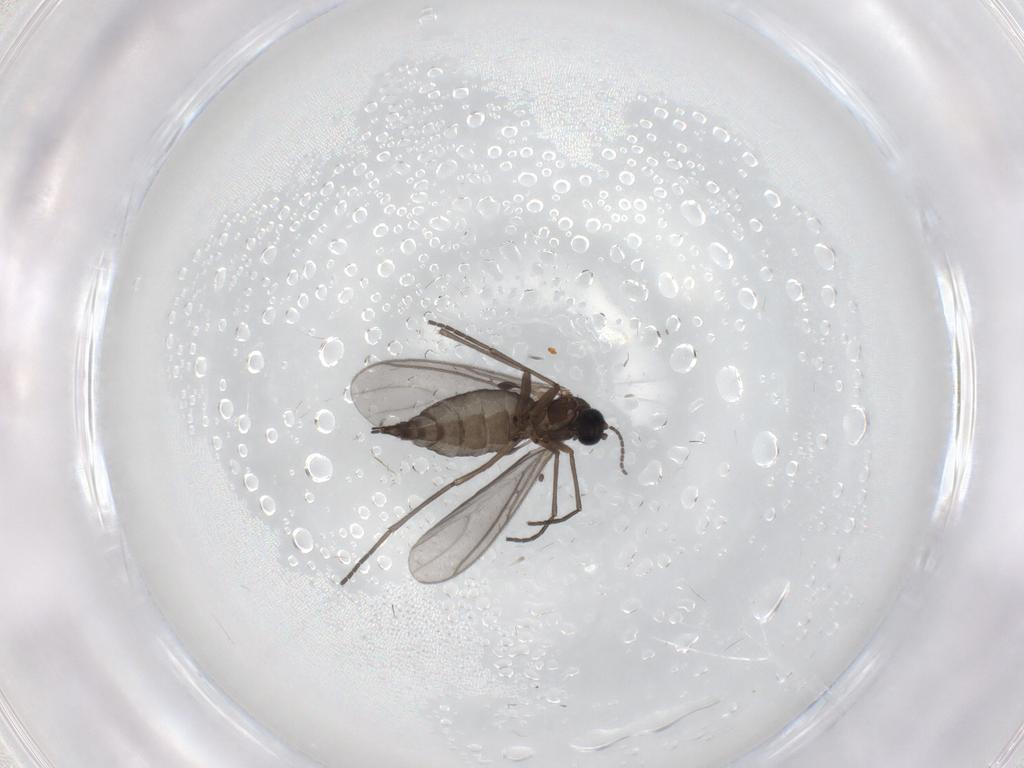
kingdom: Animalia
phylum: Arthropoda
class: Insecta
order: Diptera
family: Sciaridae
